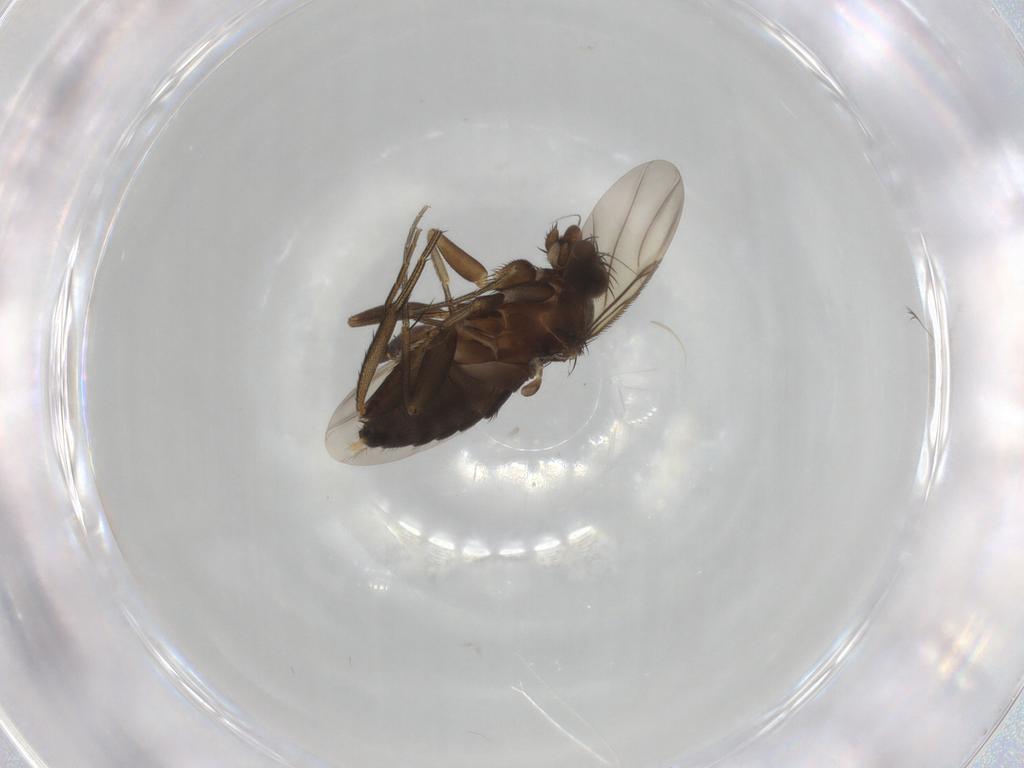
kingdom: Animalia
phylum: Arthropoda
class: Insecta
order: Diptera
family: Phoridae
